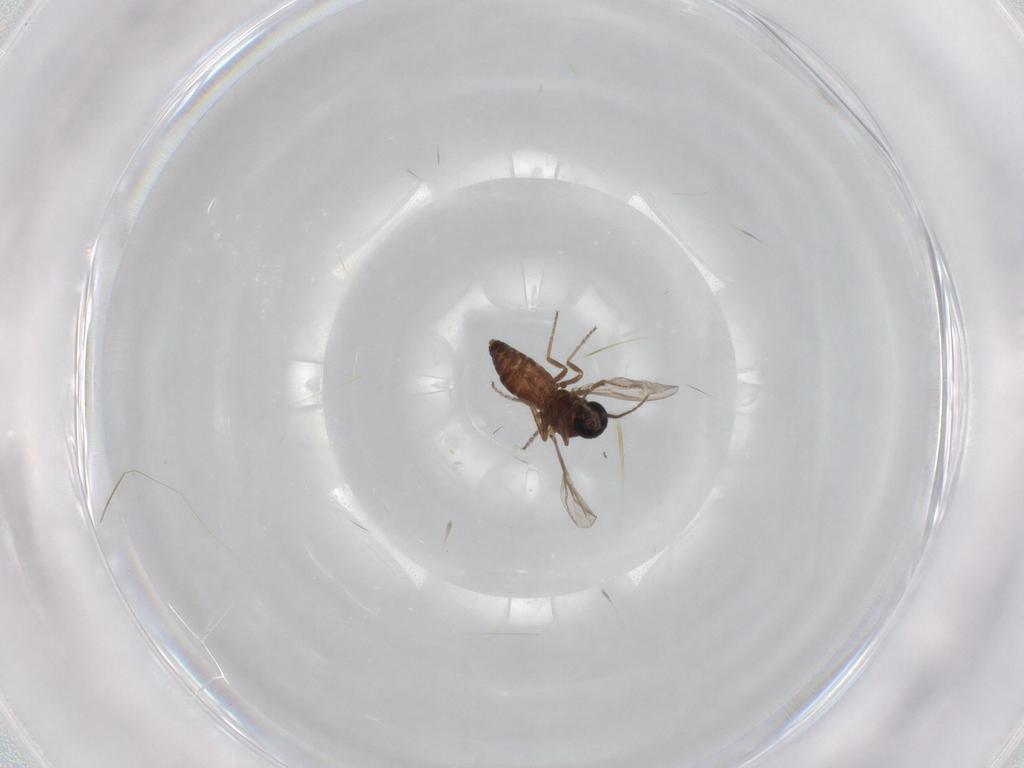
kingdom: Animalia
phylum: Arthropoda
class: Insecta
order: Diptera
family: Ceratopogonidae
